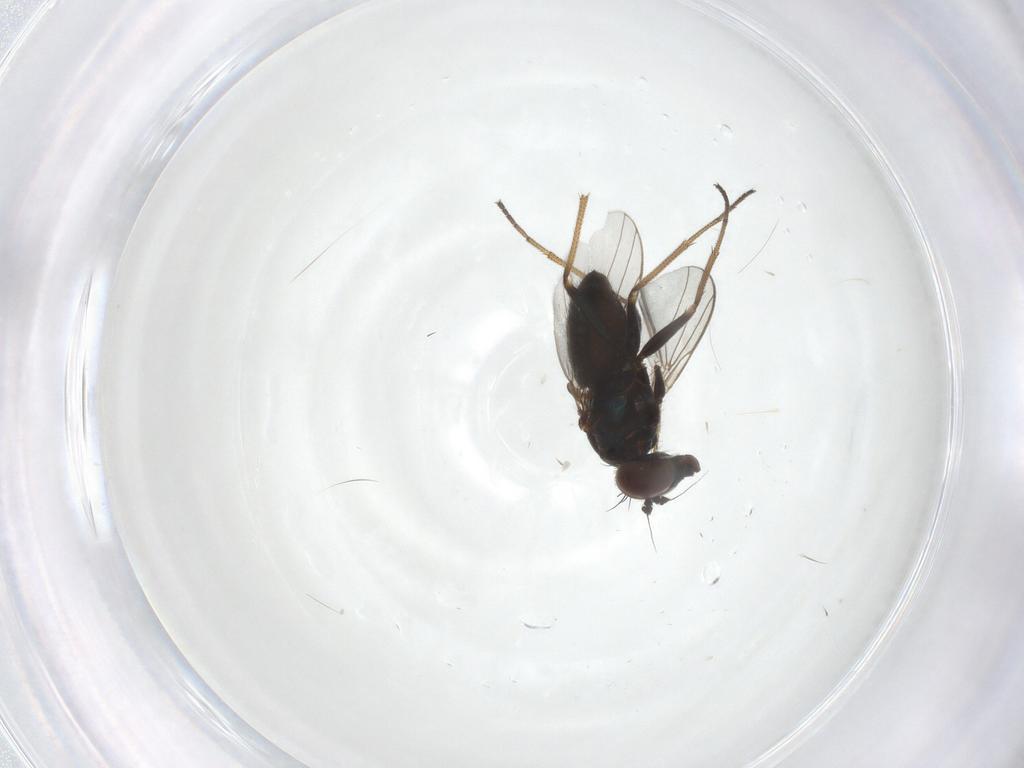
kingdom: Animalia
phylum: Arthropoda
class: Insecta
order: Diptera
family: Dolichopodidae
